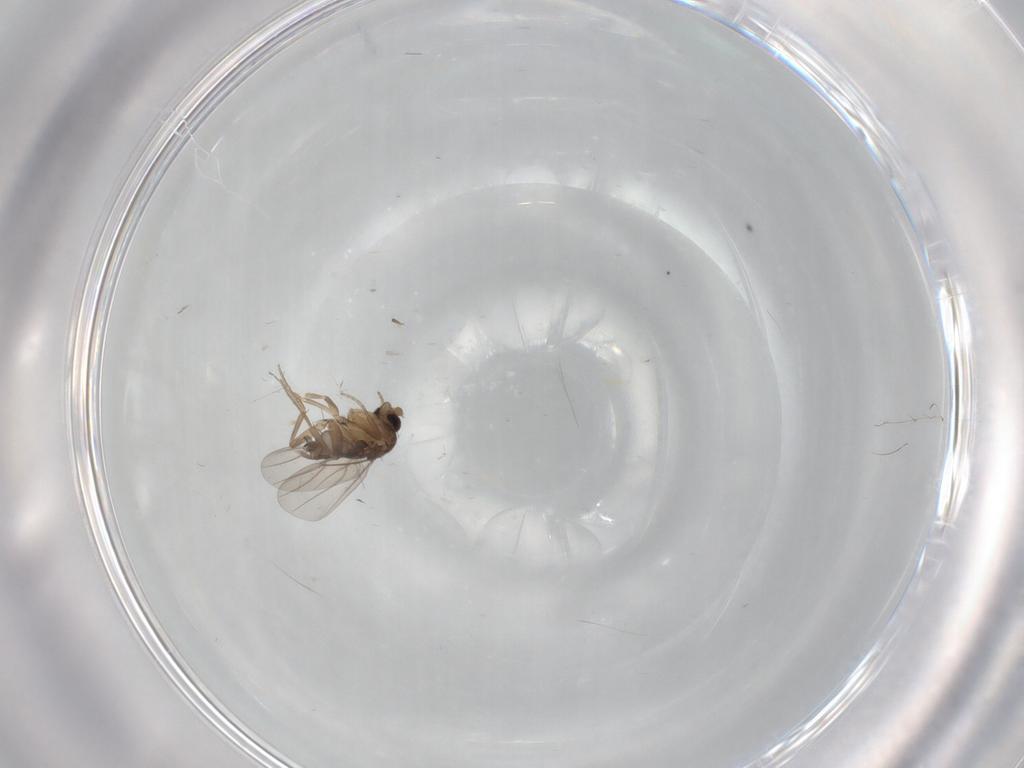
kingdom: Animalia
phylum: Arthropoda
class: Insecta
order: Diptera
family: Phoridae
